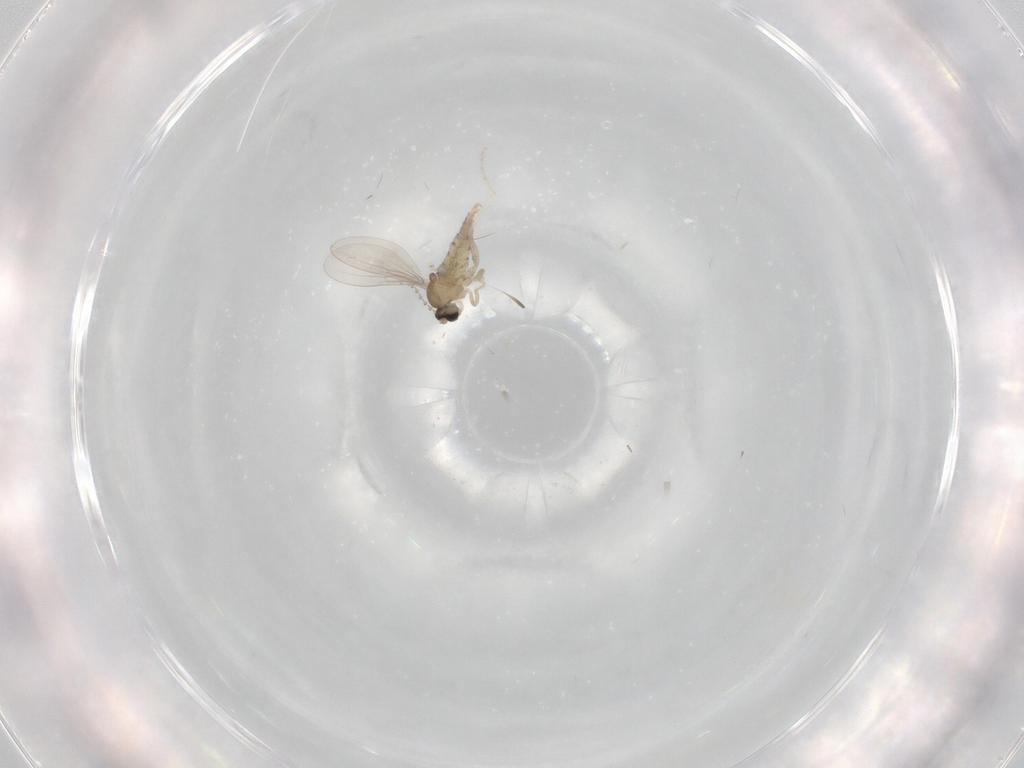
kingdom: Animalia
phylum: Arthropoda
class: Insecta
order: Diptera
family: Cecidomyiidae
